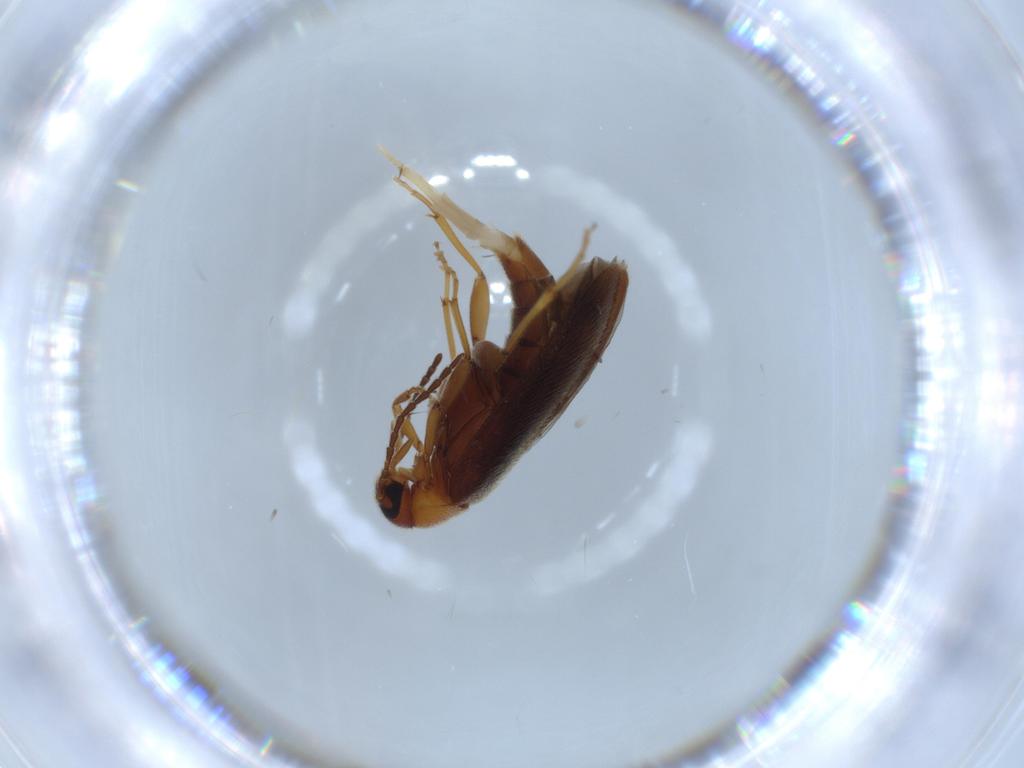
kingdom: Animalia
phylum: Arthropoda
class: Insecta
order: Coleoptera
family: Scraptiidae
